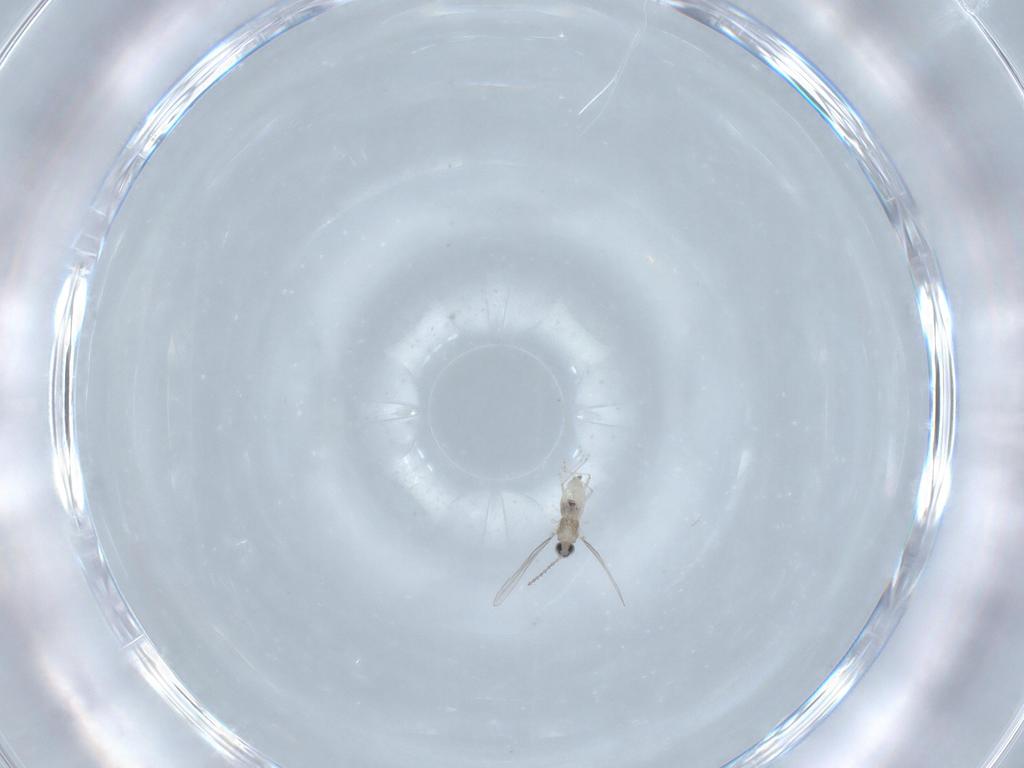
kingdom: Animalia
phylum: Arthropoda
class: Insecta
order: Diptera
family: Cecidomyiidae
